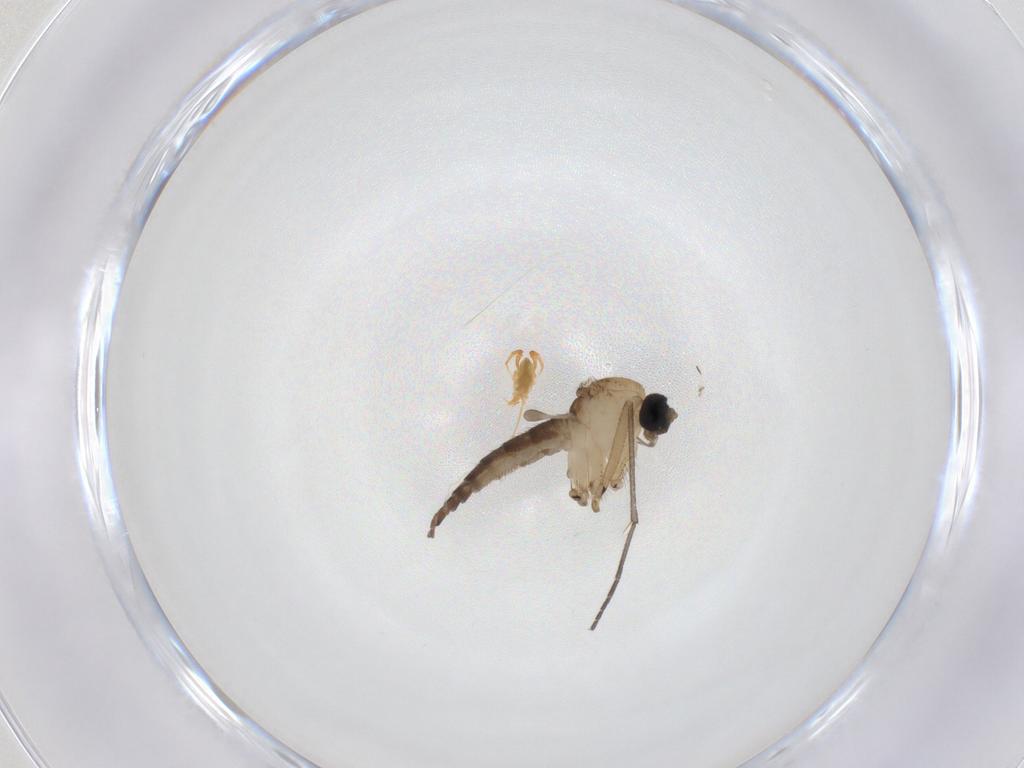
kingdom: Animalia
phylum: Arthropoda
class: Insecta
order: Diptera
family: Sciaridae
